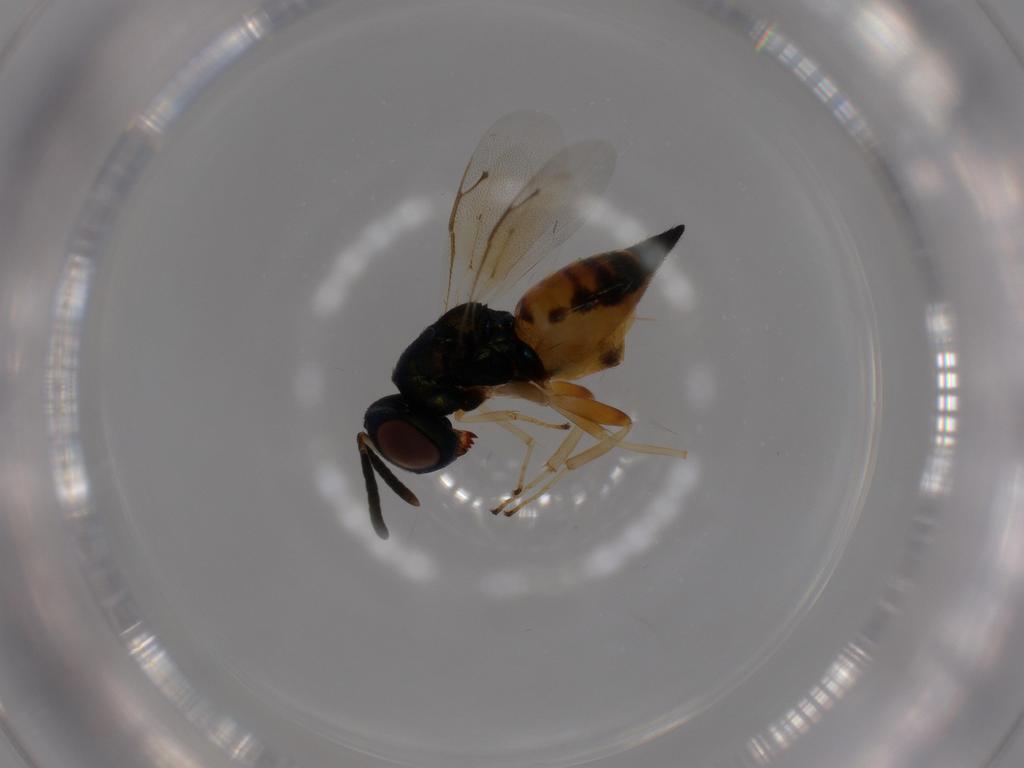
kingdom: Animalia
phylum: Arthropoda
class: Insecta
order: Hymenoptera
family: Pteromalidae
